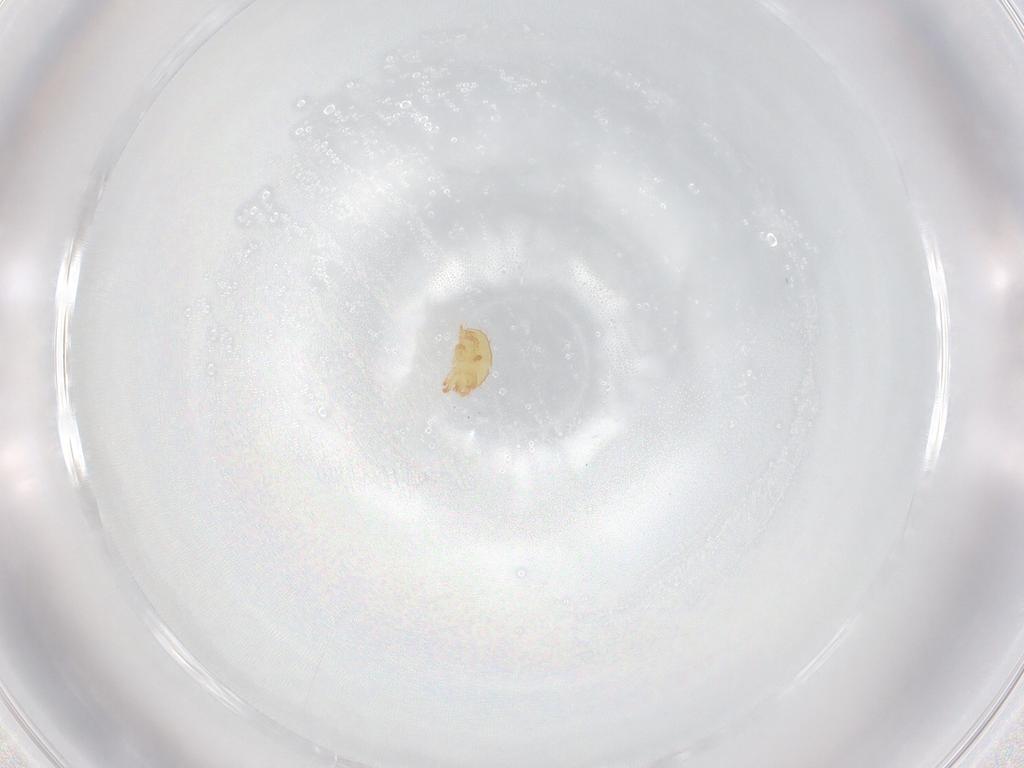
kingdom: Animalia
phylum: Arthropoda
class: Arachnida
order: Trombidiformes
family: Stigmaeidae
